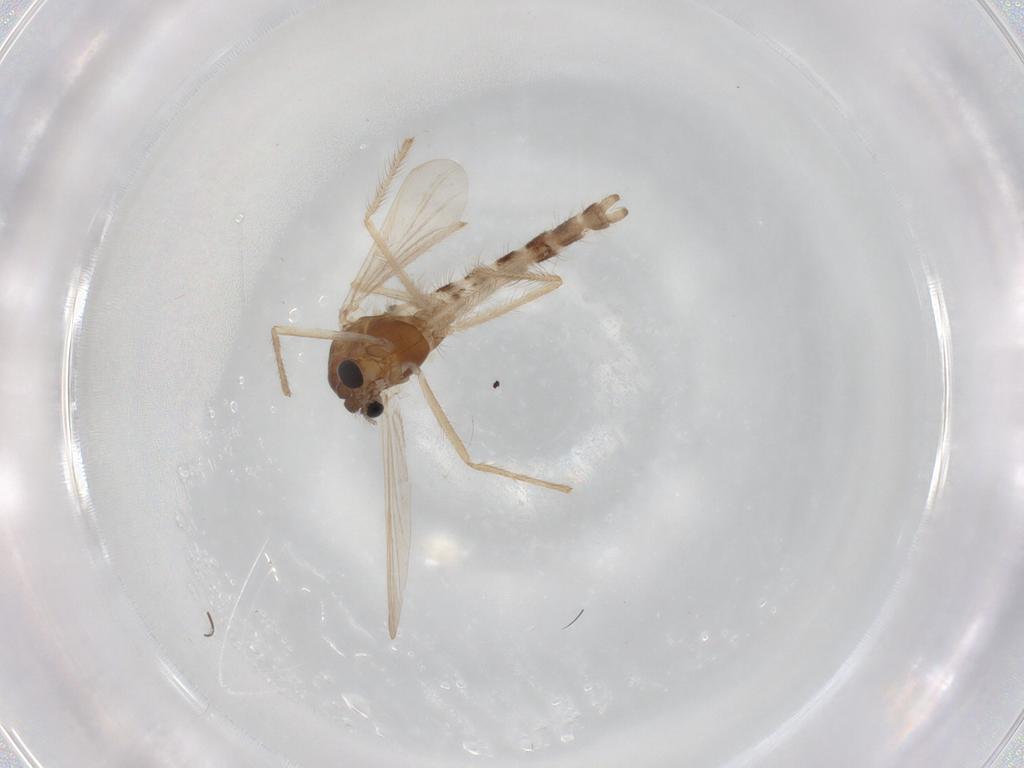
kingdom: Animalia
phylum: Arthropoda
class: Insecta
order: Diptera
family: Chironomidae
